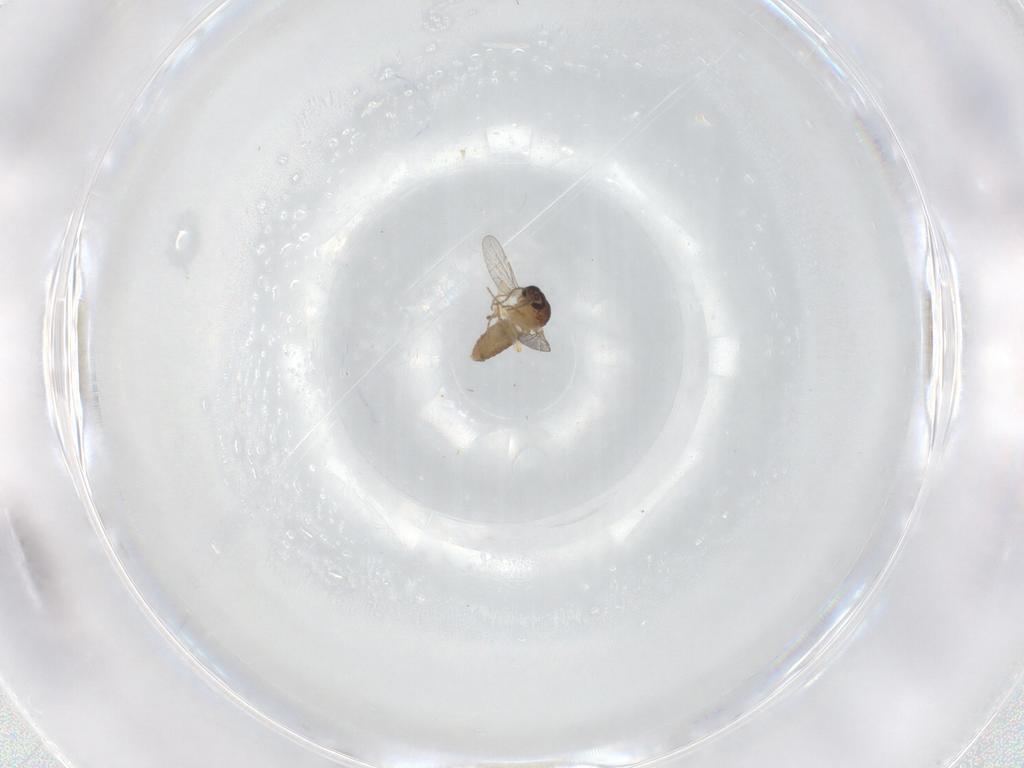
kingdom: Animalia
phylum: Arthropoda
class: Insecta
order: Diptera
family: Ceratopogonidae
